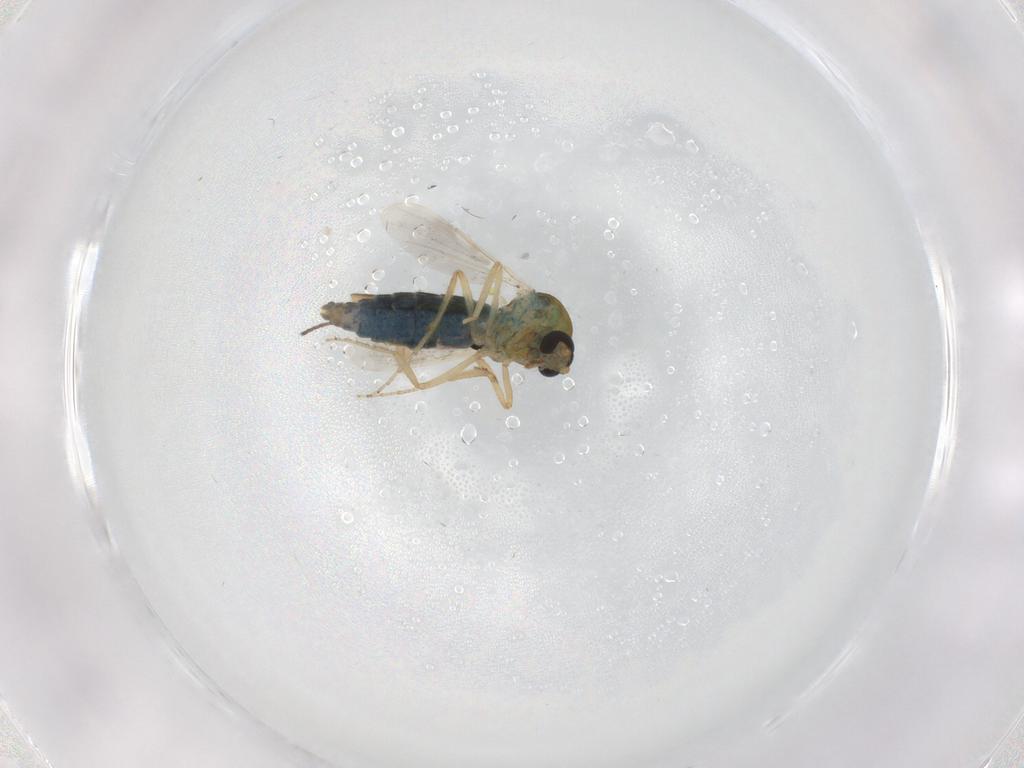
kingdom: Animalia
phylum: Arthropoda
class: Insecta
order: Diptera
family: Ceratopogonidae
